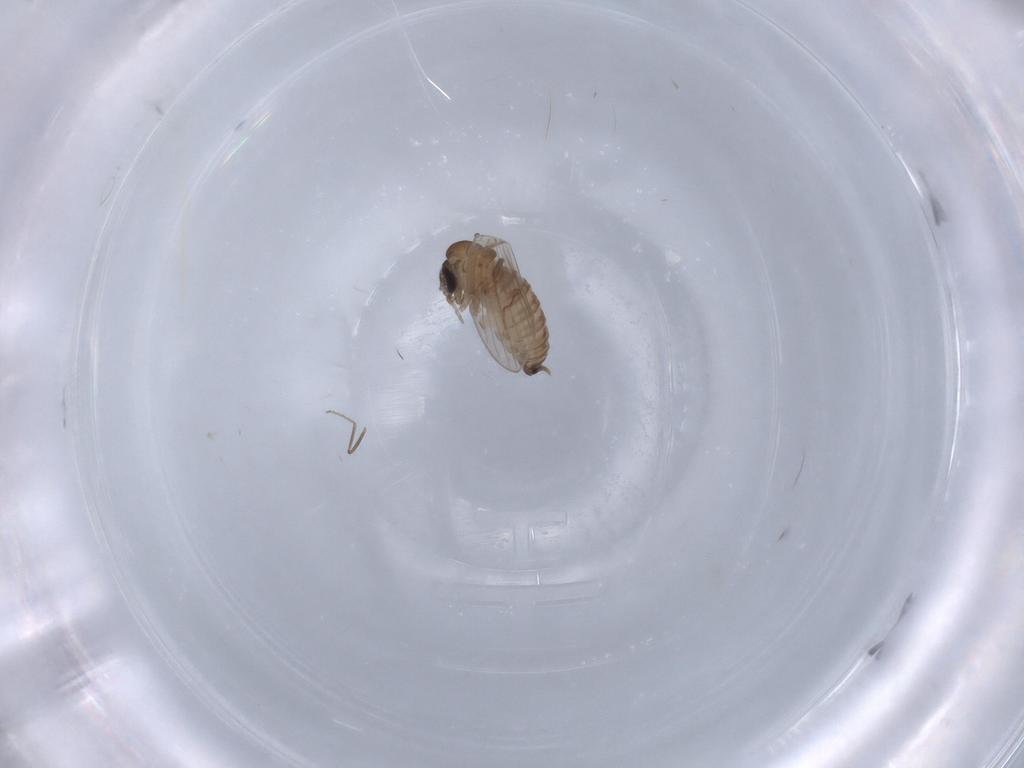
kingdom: Animalia
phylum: Arthropoda
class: Insecta
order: Diptera
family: Psychodidae
